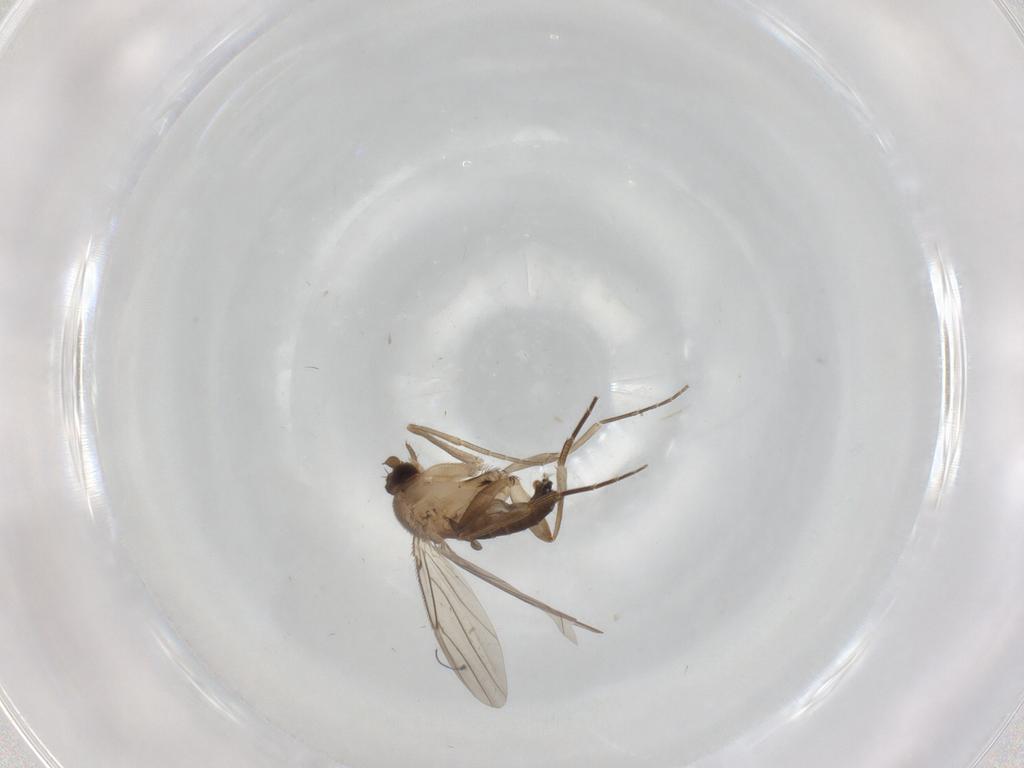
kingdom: Animalia
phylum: Arthropoda
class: Insecta
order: Diptera
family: Phoridae
